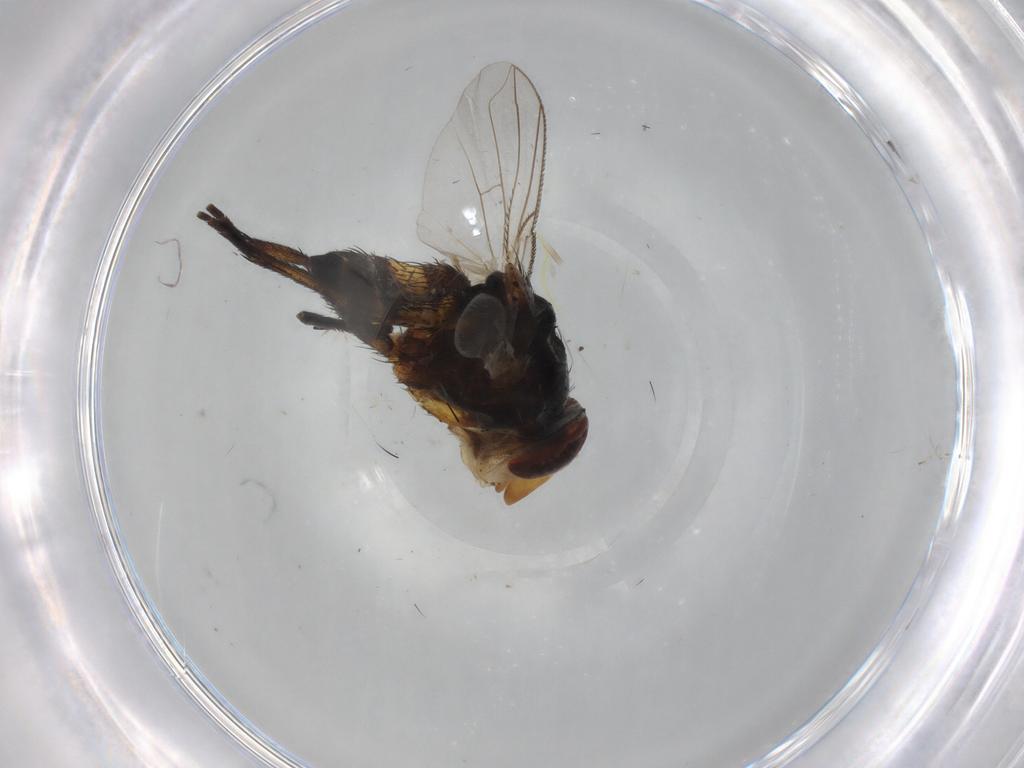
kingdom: Animalia
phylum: Arthropoda
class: Insecta
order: Diptera
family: Tachinidae
